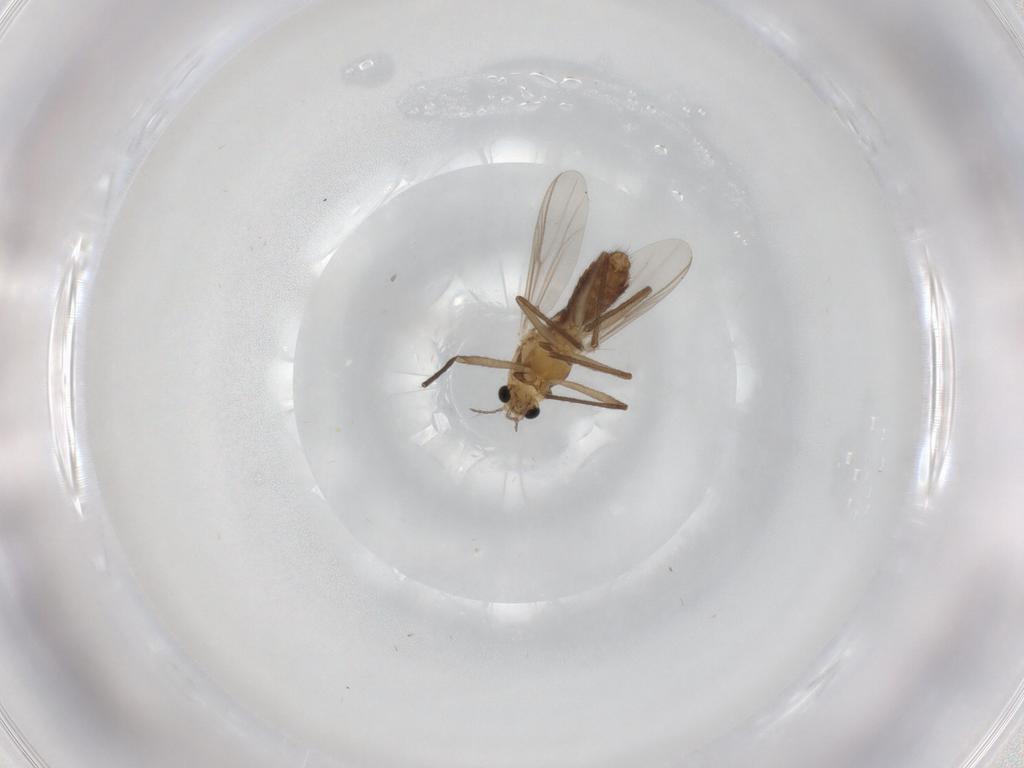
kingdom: Animalia
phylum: Arthropoda
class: Insecta
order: Diptera
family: Chironomidae
